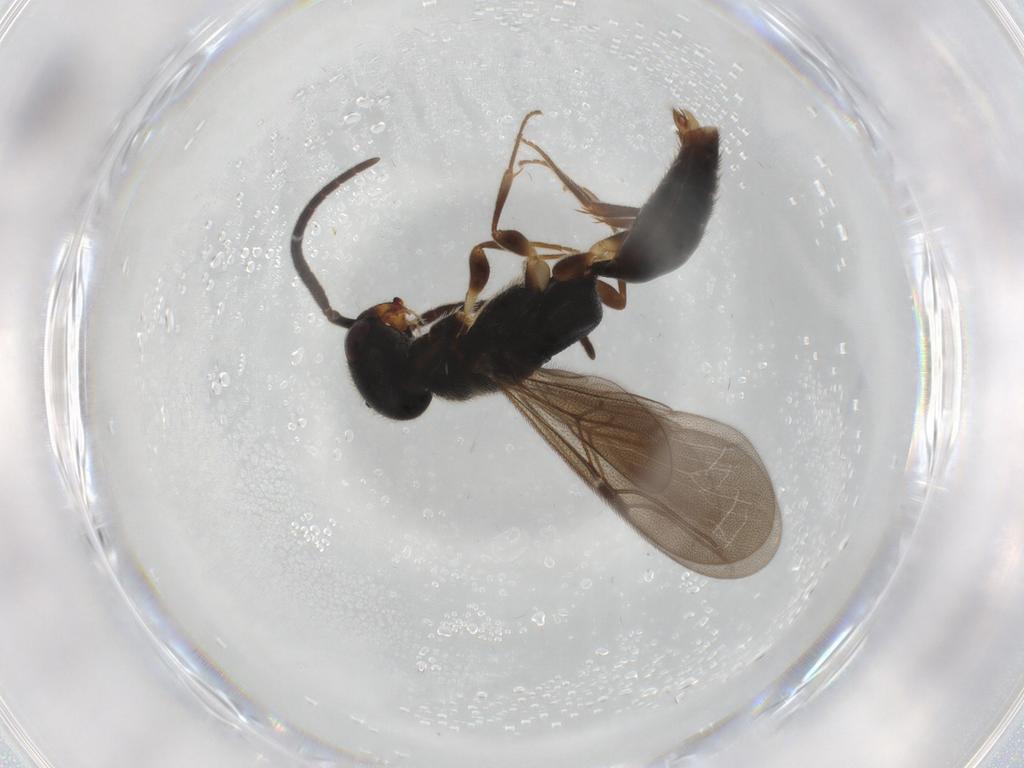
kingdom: Animalia
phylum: Arthropoda
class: Insecta
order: Hymenoptera
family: Bethylidae
